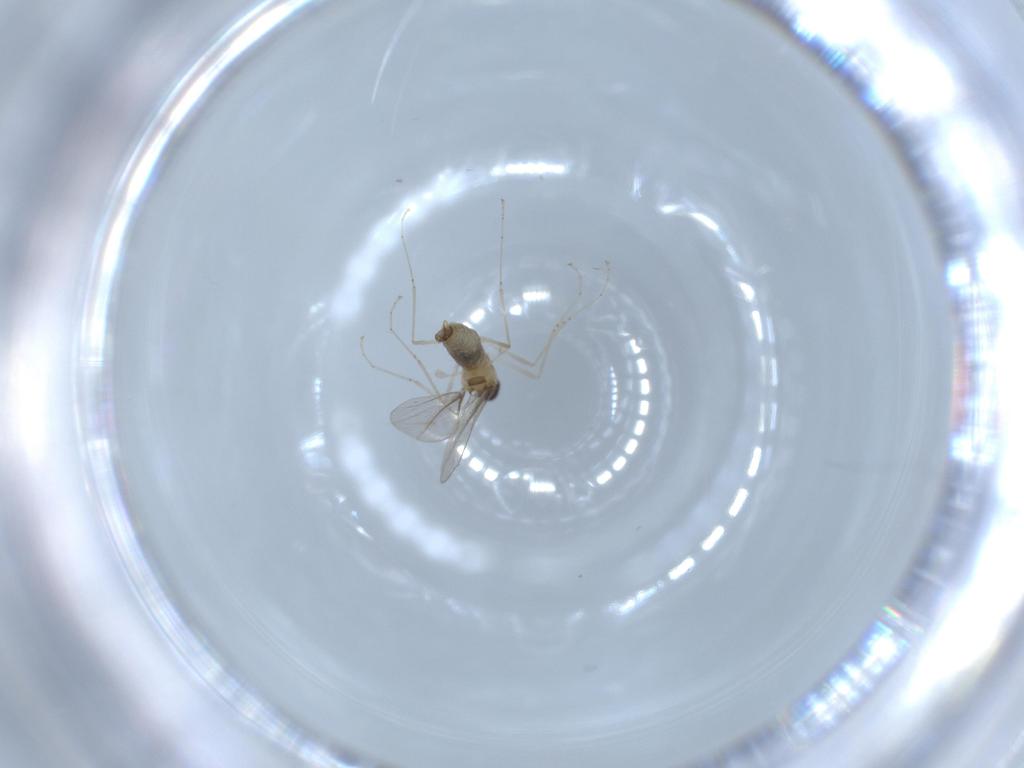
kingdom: Animalia
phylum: Arthropoda
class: Insecta
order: Diptera
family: Cecidomyiidae
